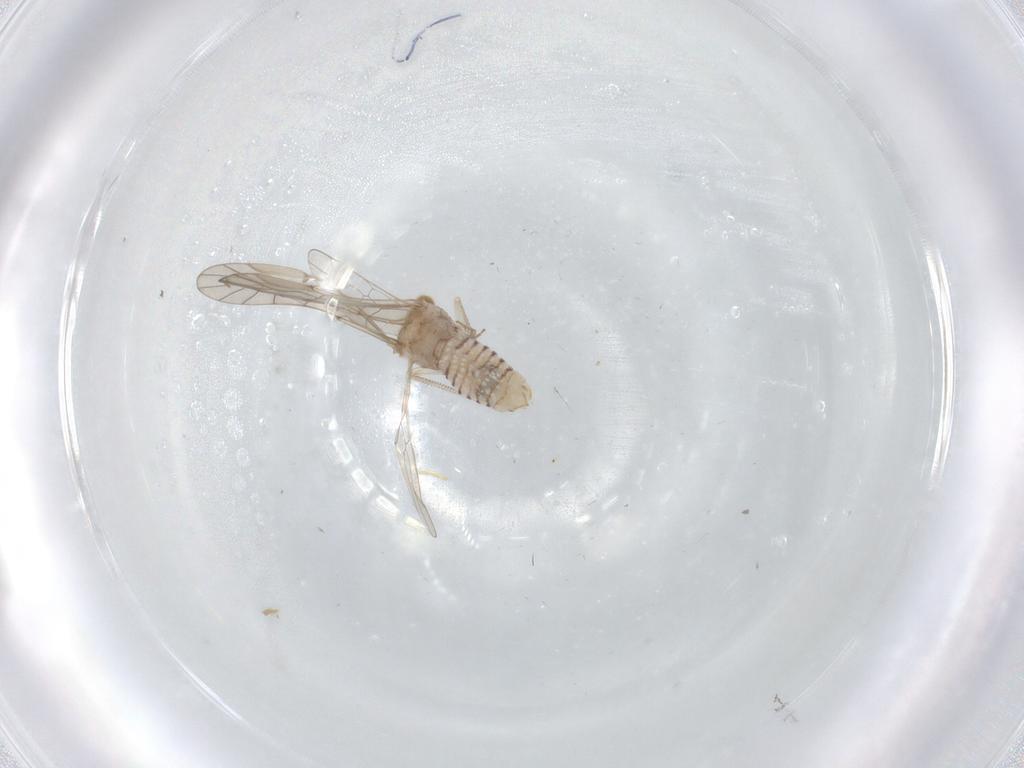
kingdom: Animalia
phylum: Arthropoda
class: Insecta
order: Psocodea
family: Lachesillidae
